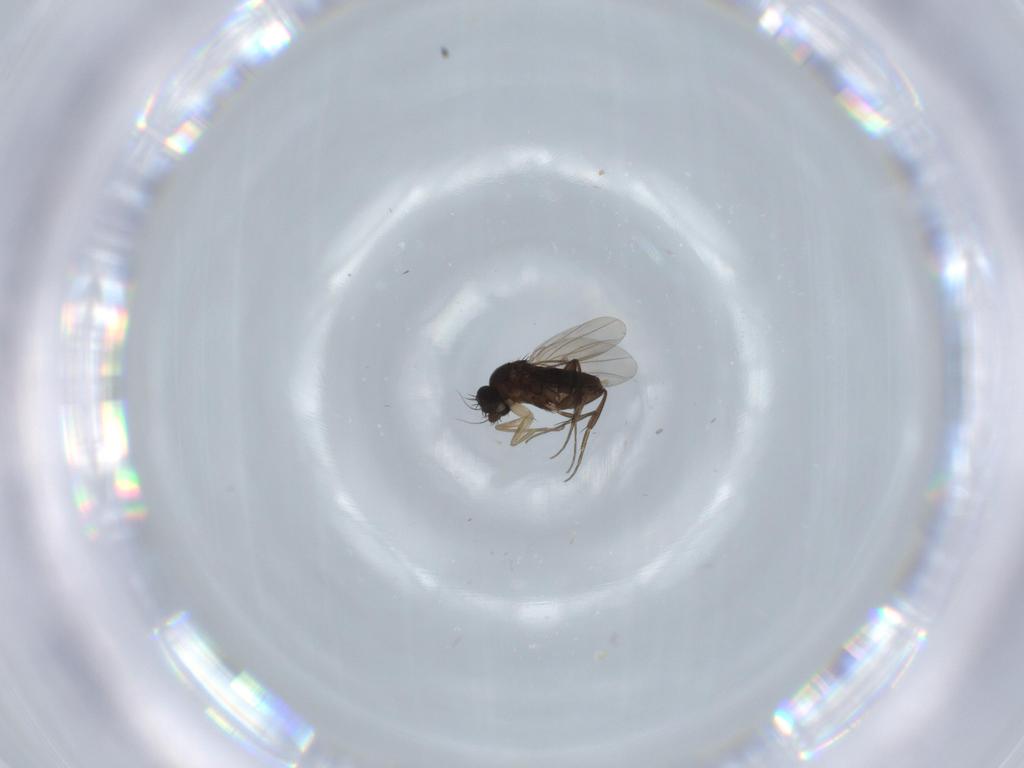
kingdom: Animalia
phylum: Arthropoda
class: Insecta
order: Diptera
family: Phoridae
